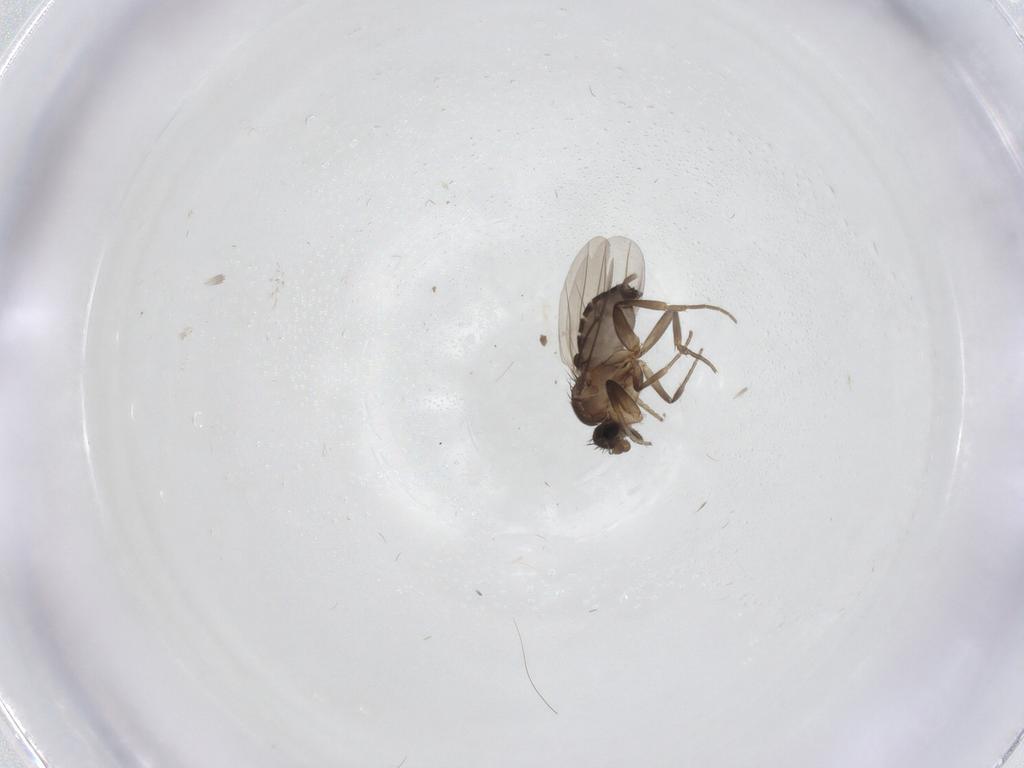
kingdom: Animalia
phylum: Arthropoda
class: Insecta
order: Diptera
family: Phoridae
